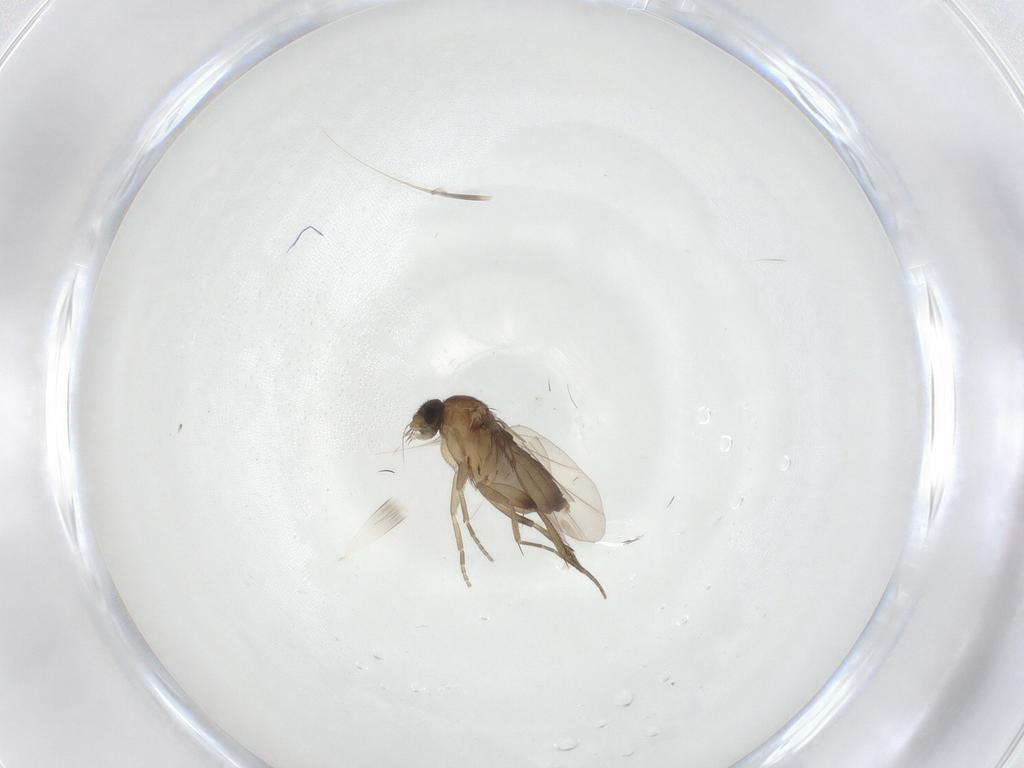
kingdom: Animalia
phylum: Arthropoda
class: Insecta
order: Diptera
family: Phoridae
